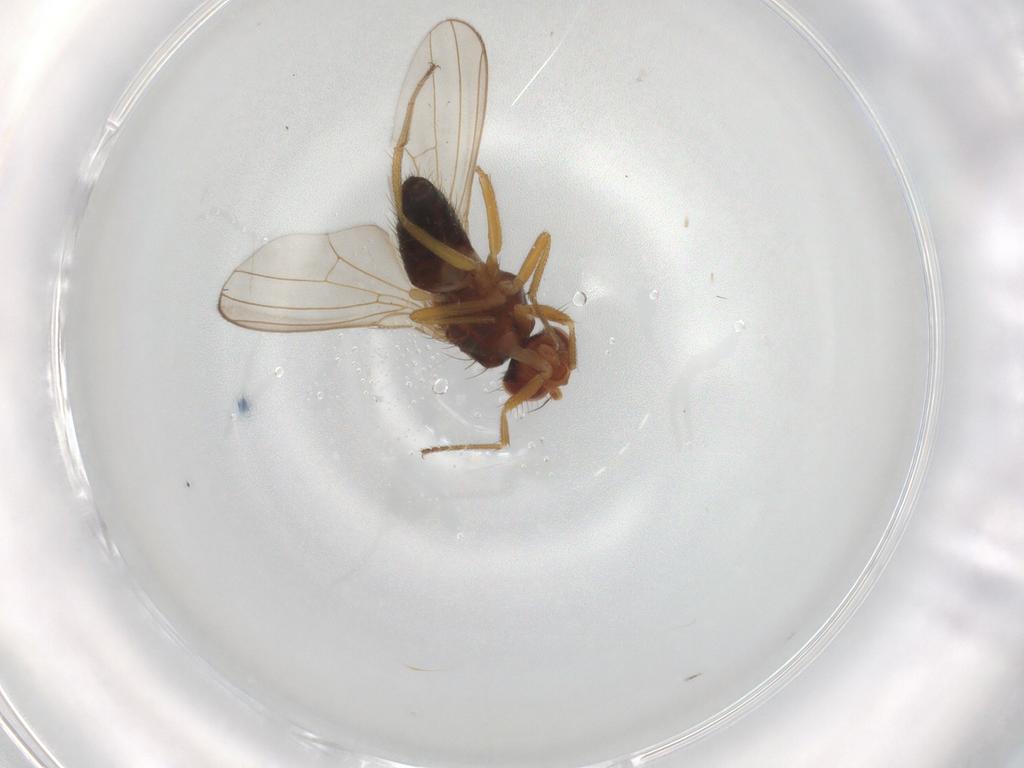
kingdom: Animalia
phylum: Arthropoda
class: Insecta
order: Diptera
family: Drosophilidae
